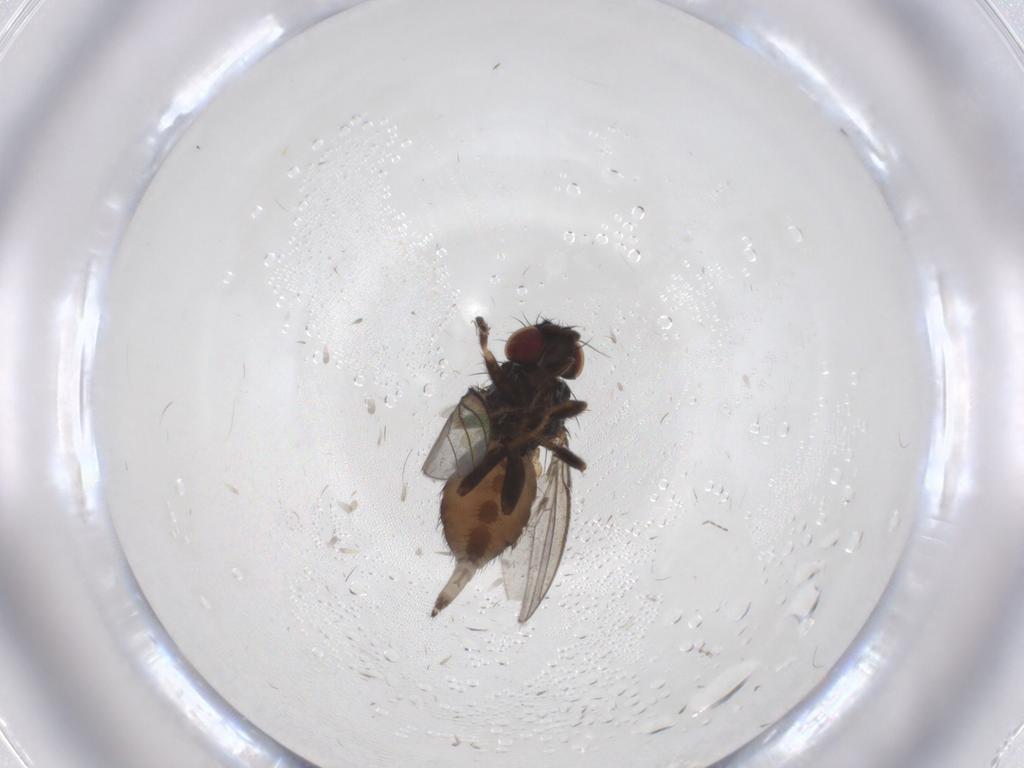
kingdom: Animalia
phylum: Arthropoda
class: Insecta
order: Diptera
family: Milichiidae
